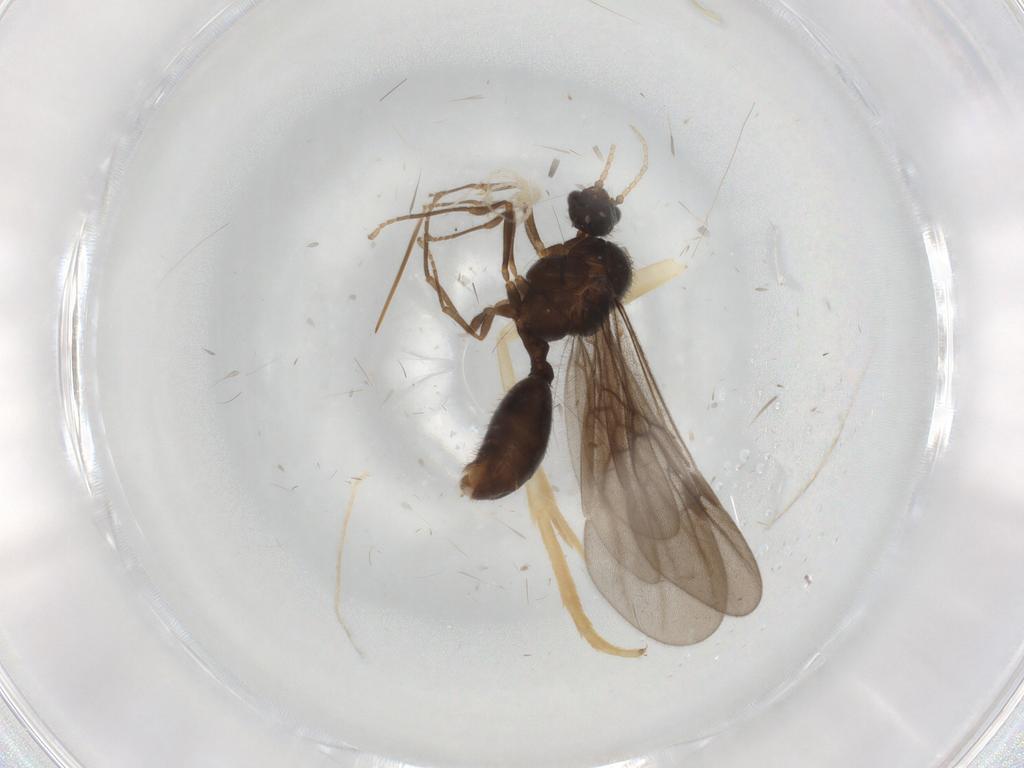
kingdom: Animalia
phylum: Arthropoda
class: Insecta
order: Hymenoptera
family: Formicidae
